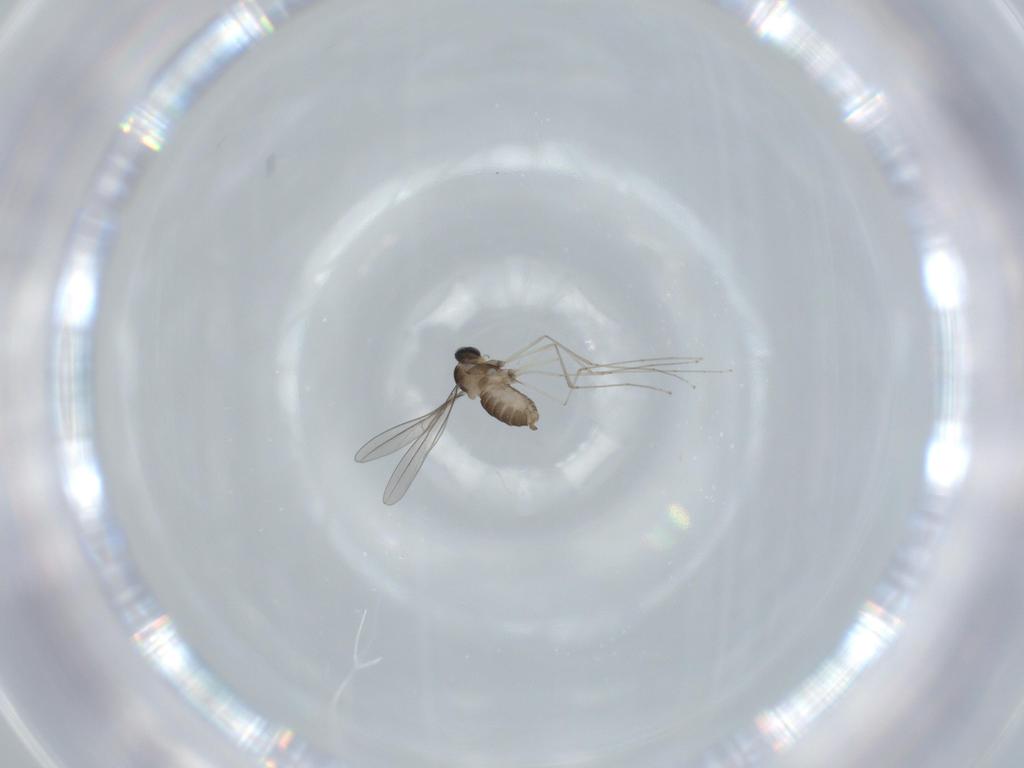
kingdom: Animalia
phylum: Arthropoda
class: Insecta
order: Diptera
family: Cecidomyiidae
